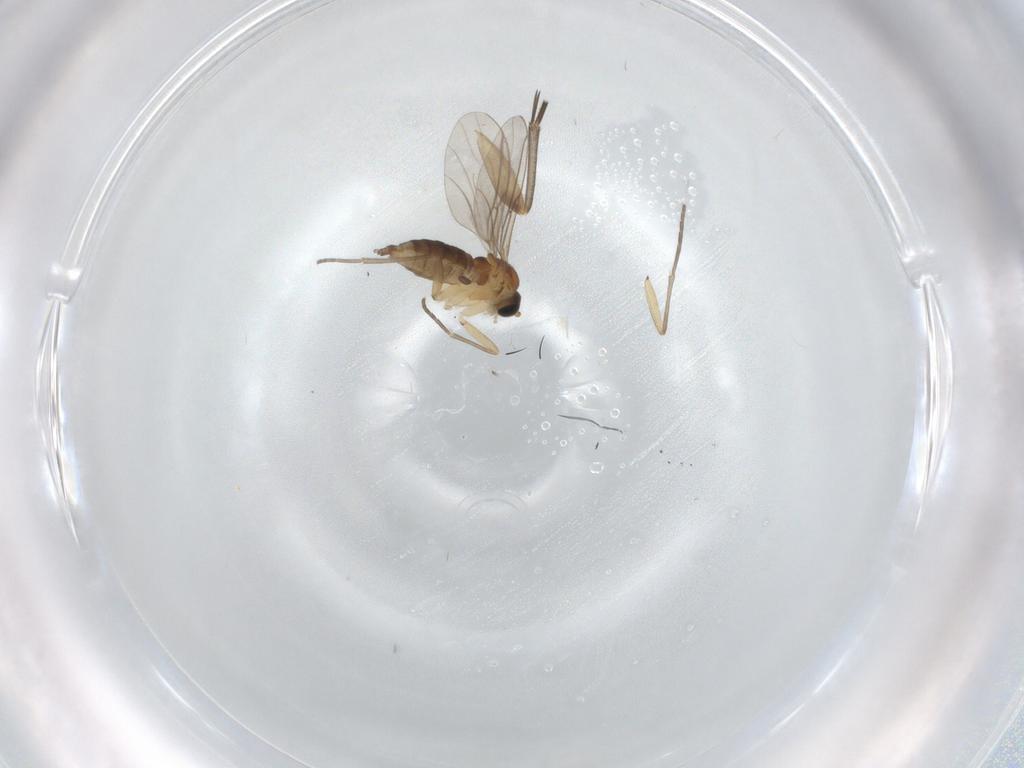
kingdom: Animalia
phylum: Arthropoda
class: Insecta
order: Diptera
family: Mycetophilidae
